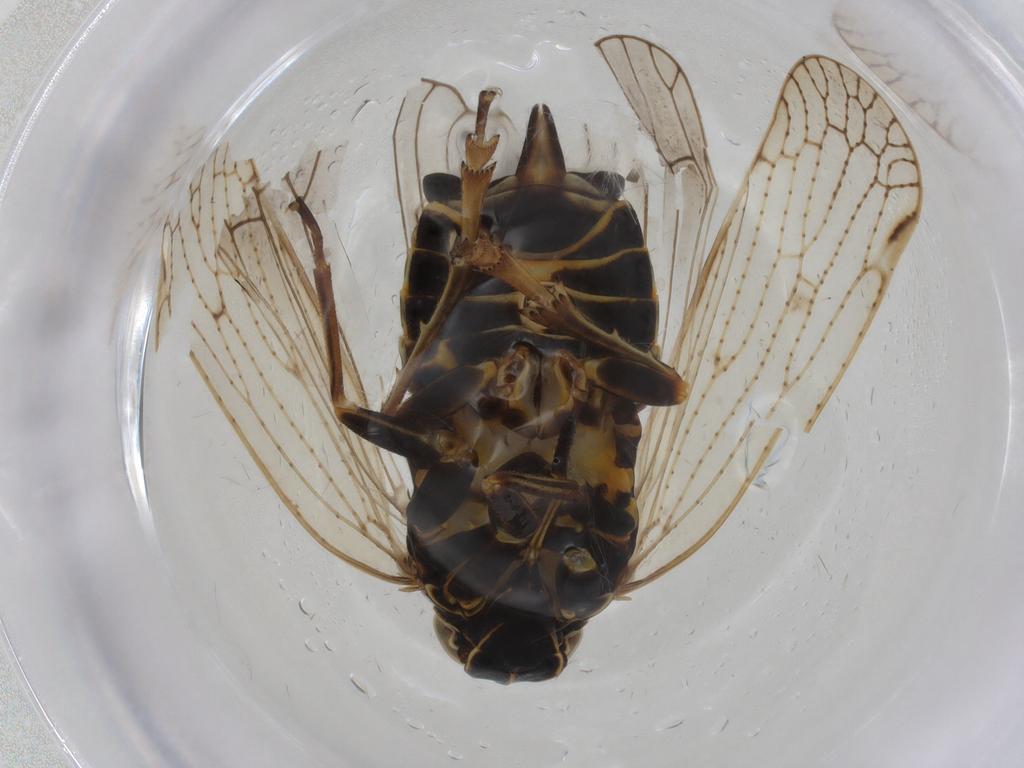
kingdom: Animalia
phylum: Arthropoda
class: Insecta
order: Hemiptera
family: Cixiidae
